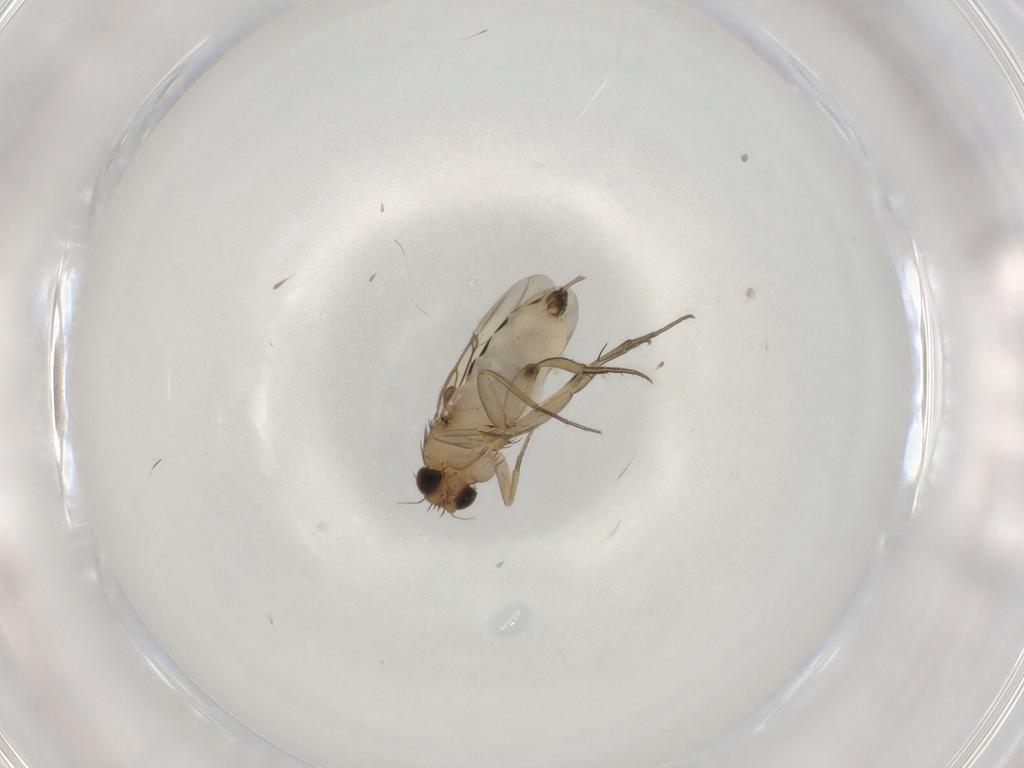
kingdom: Animalia
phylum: Arthropoda
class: Insecta
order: Diptera
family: Phoridae
